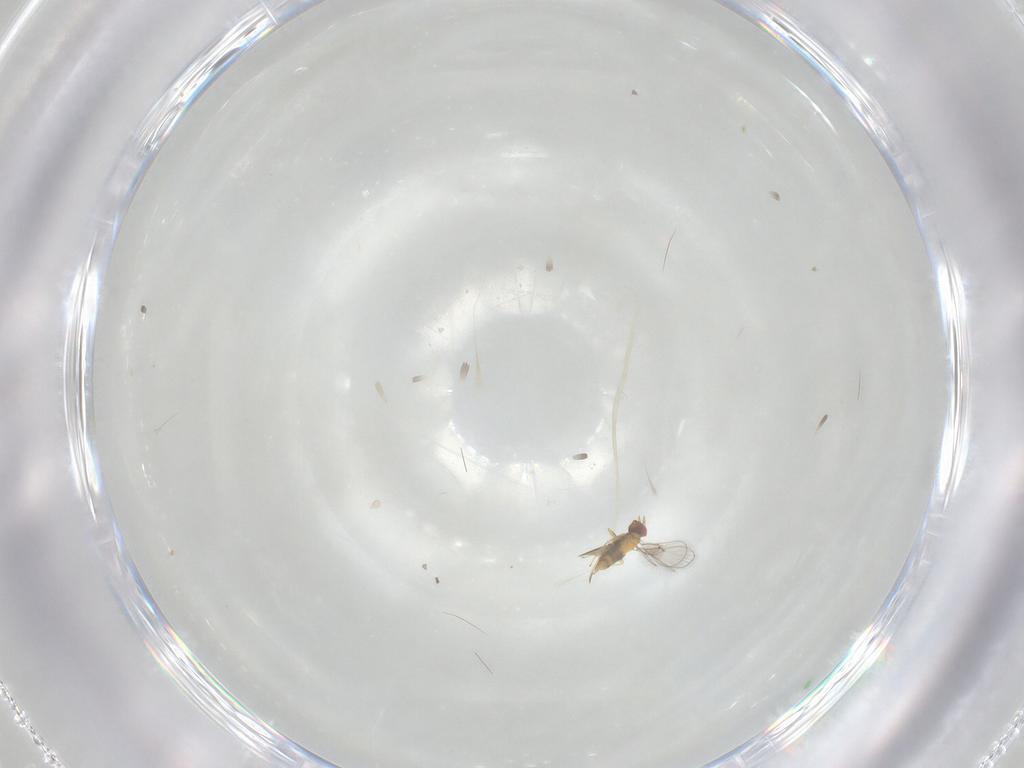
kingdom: Animalia
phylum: Arthropoda
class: Insecta
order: Diptera
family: Cecidomyiidae
